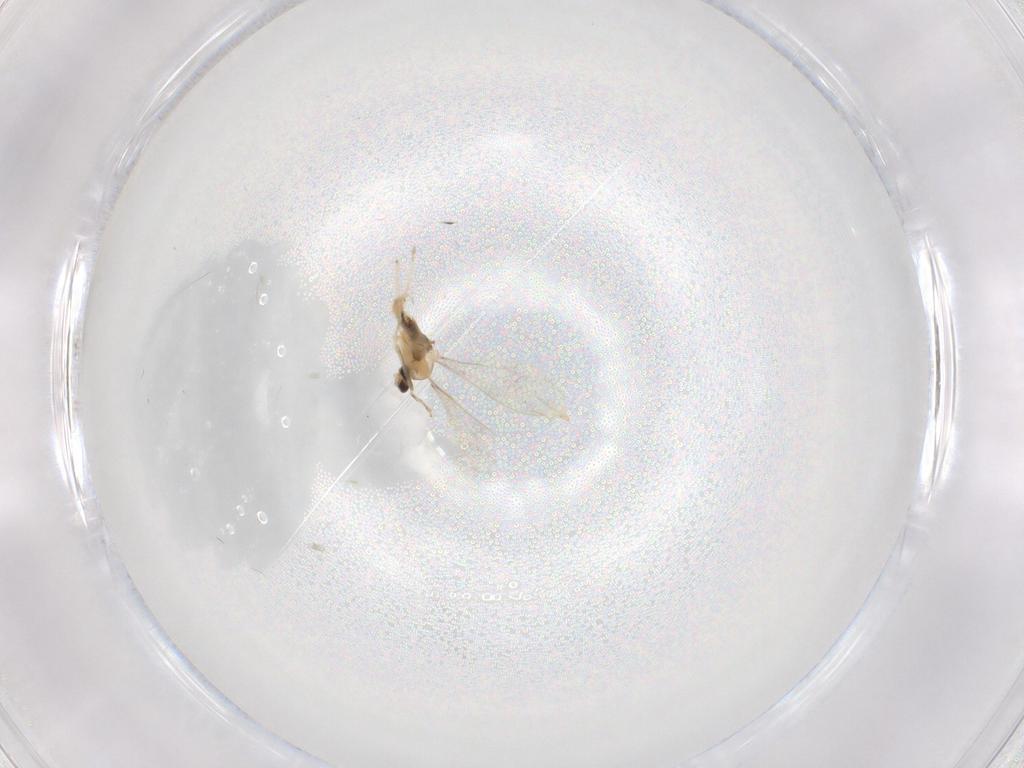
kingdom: Animalia
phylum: Arthropoda
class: Insecta
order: Diptera
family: Cecidomyiidae
